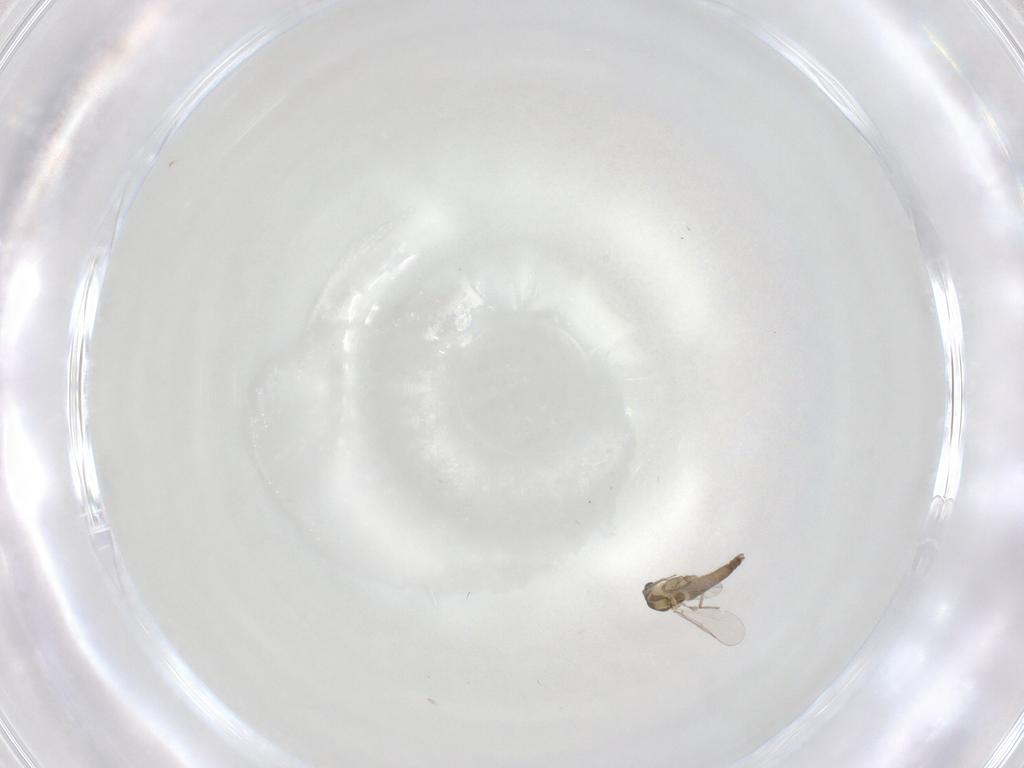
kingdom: Animalia
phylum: Arthropoda
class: Insecta
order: Diptera
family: Chironomidae
